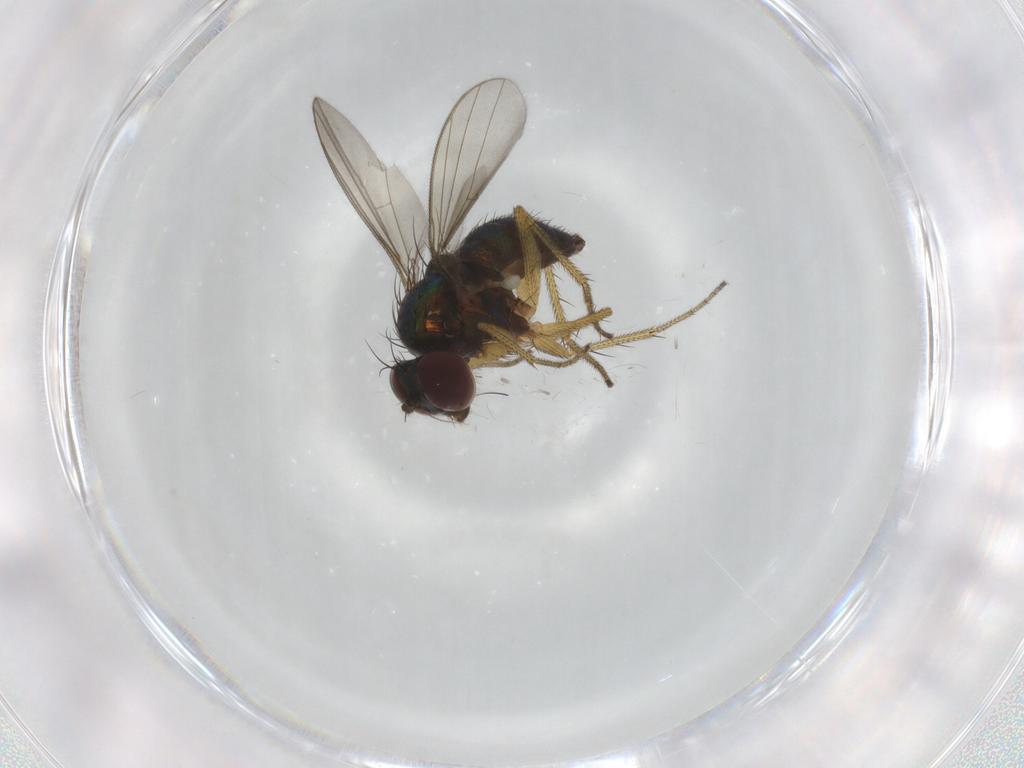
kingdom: Animalia
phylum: Arthropoda
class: Insecta
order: Diptera
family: Dolichopodidae
